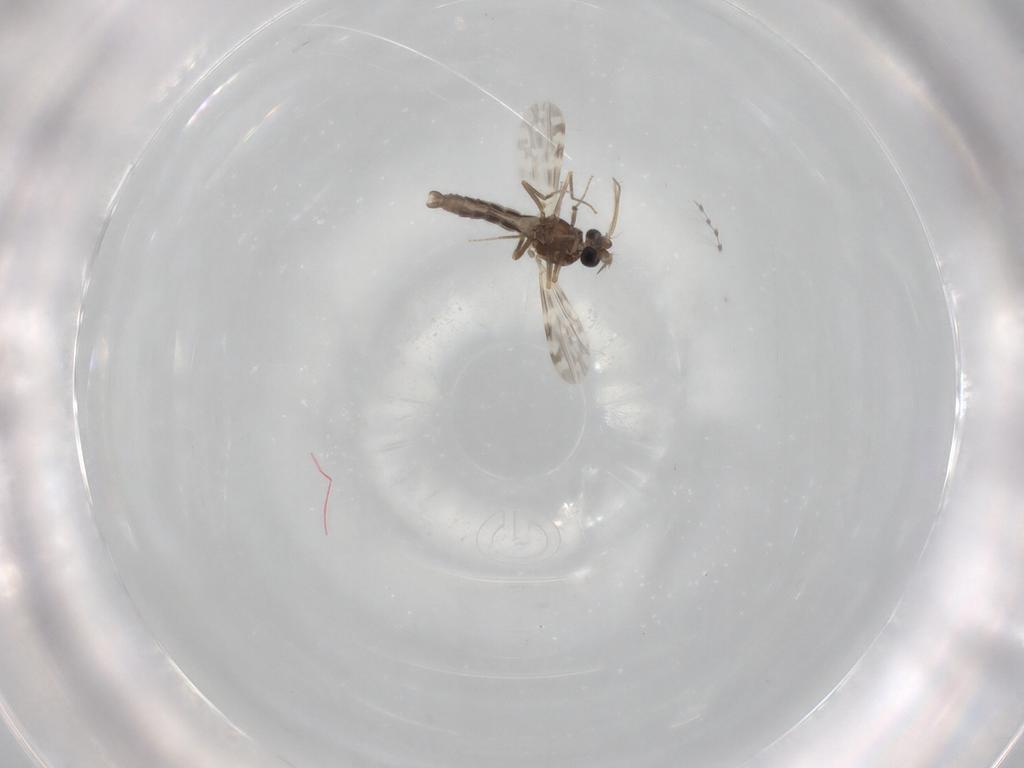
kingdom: Animalia
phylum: Arthropoda
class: Insecta
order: Diptera
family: Ceratopogonidae
